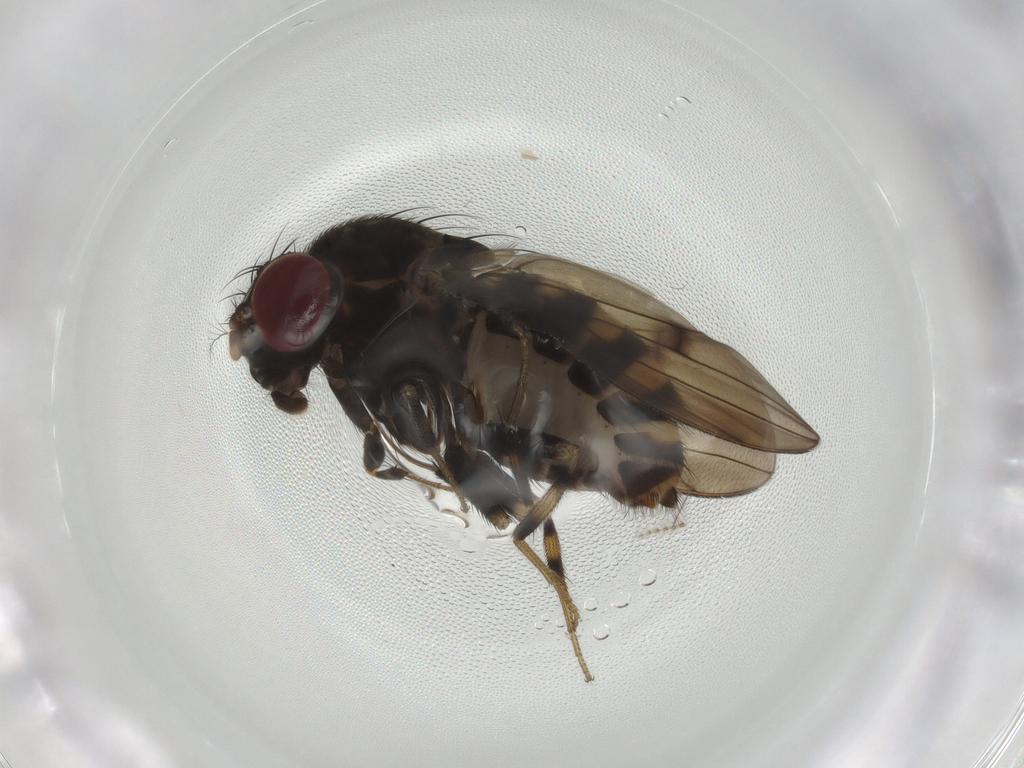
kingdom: Animalia
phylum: Arthropoda
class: Insecta
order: Diptera
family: Drosophilidae
